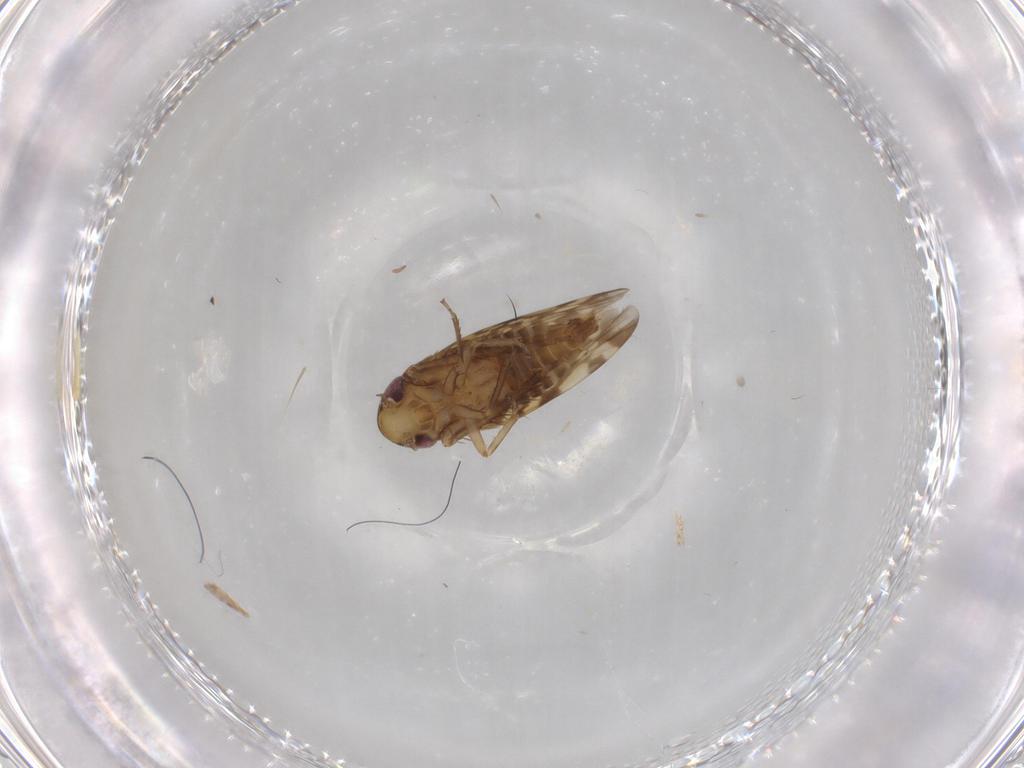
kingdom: Animalia
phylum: Arthropoda
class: Insecta
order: Hemiptera
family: Cicadellidae
